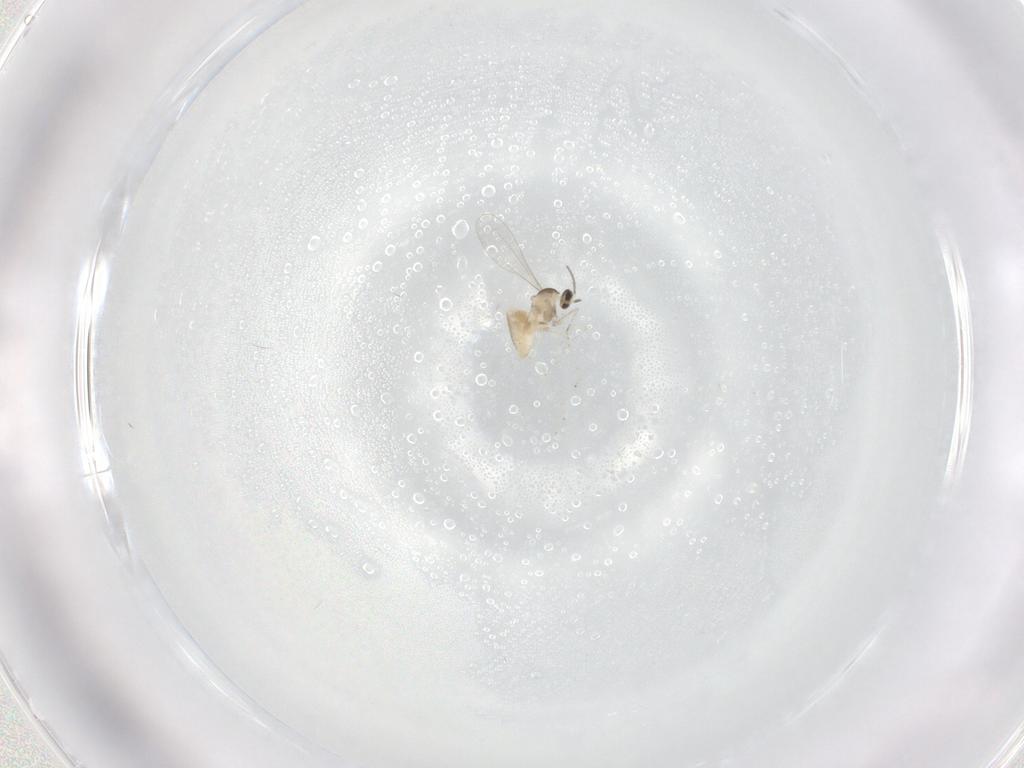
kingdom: Animalia
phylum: Arthropoda
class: Insecta
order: Diptera
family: Cecidomyiidae
